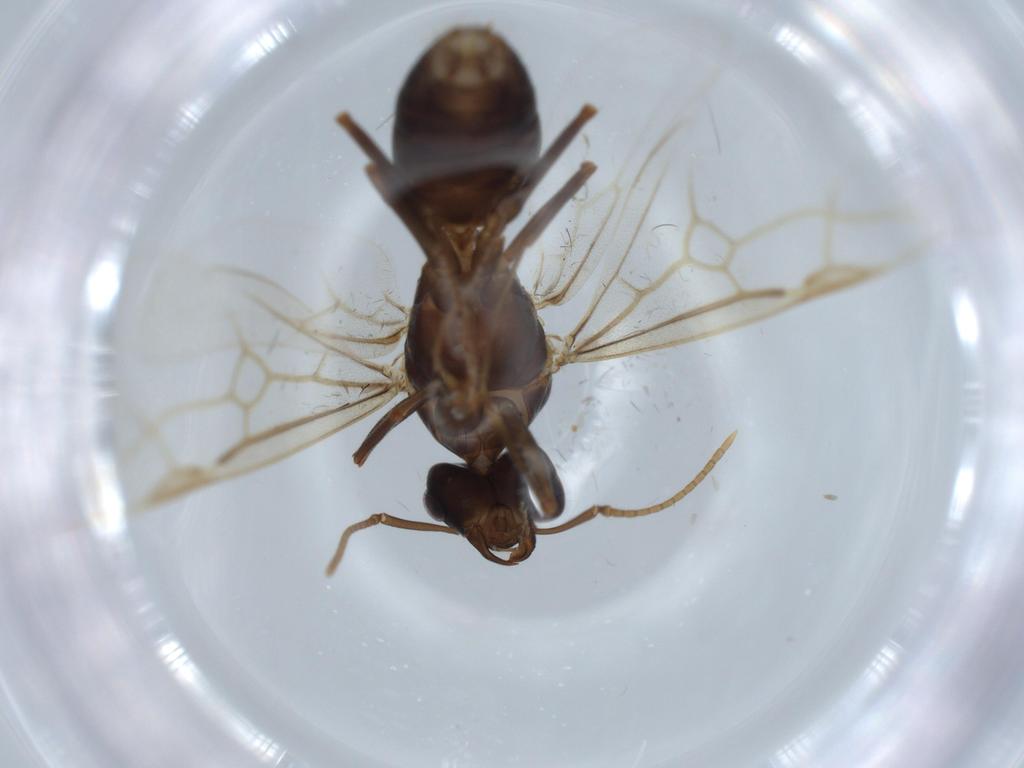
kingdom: Animalia
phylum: Arthropoda
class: Insecta
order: Hymenoptera
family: Formicidae
